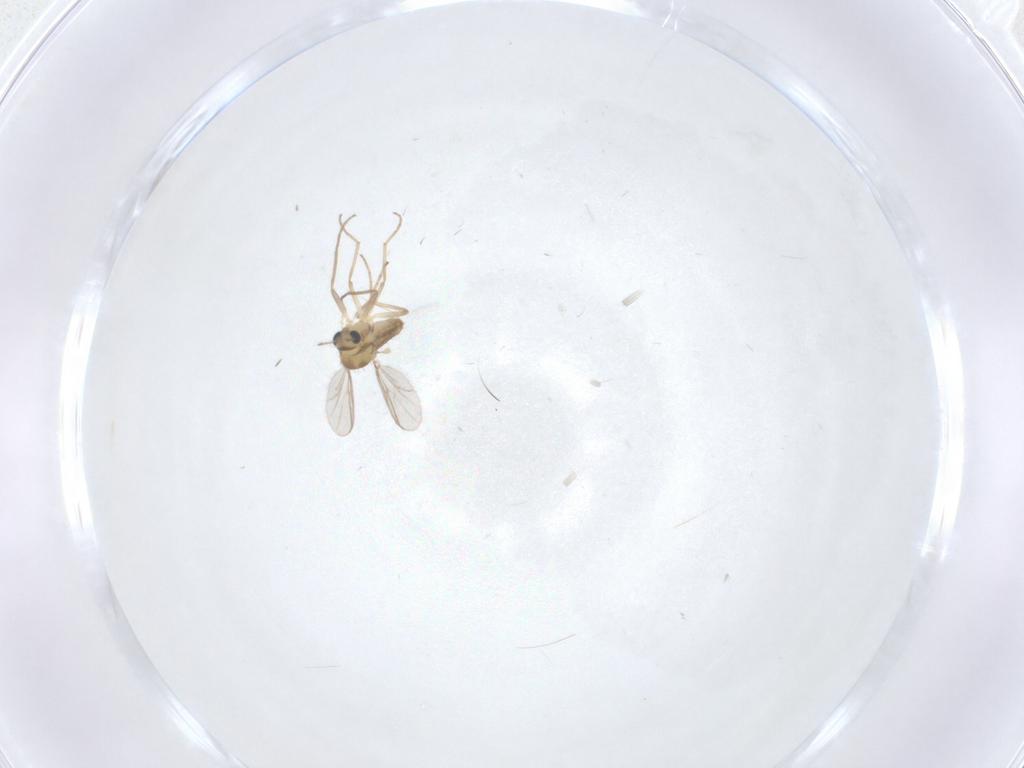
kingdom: Animalia
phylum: Arthropoda
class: Insecta
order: Diptera
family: Chironomidae
